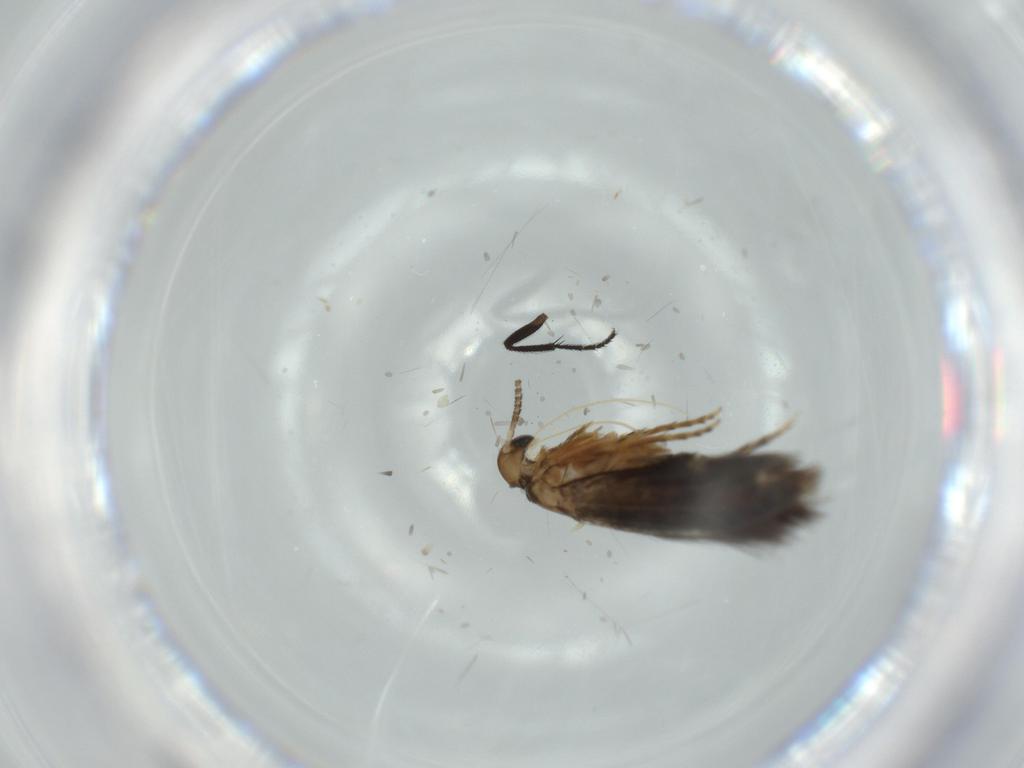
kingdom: Animalia
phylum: Arthropoda
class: Insecta
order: Lepidoptera
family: Heliozelidae
